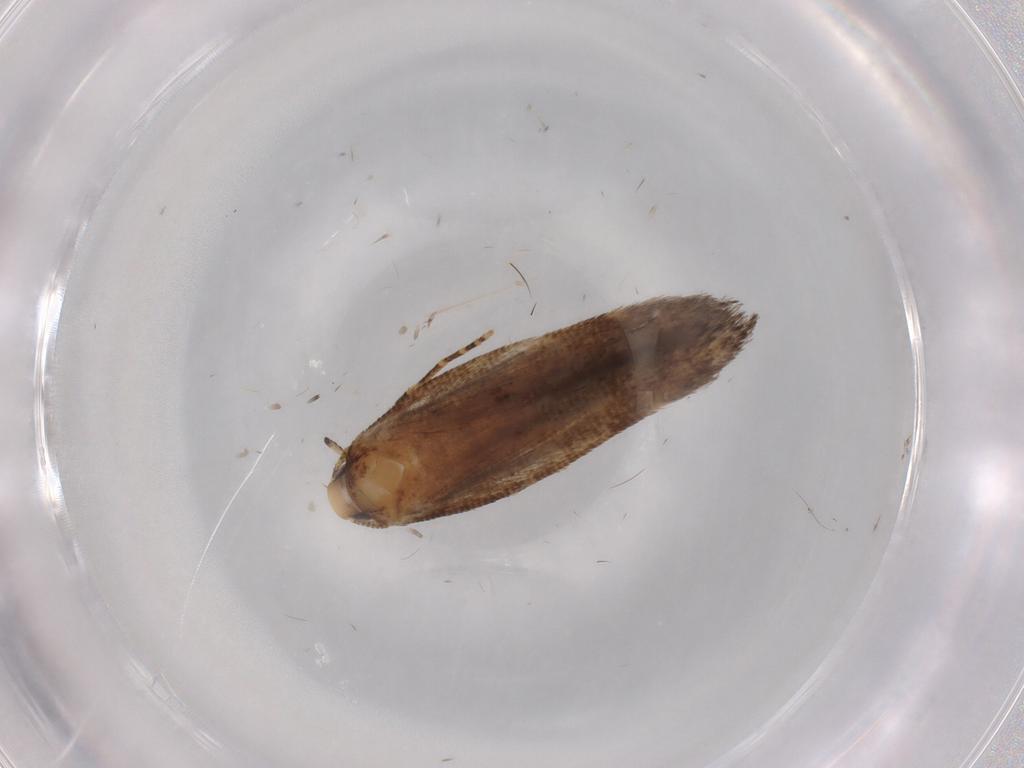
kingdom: Animalia
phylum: Arthropoda
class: Insecta
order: Lepidoptera
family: Cosmopterigidae
